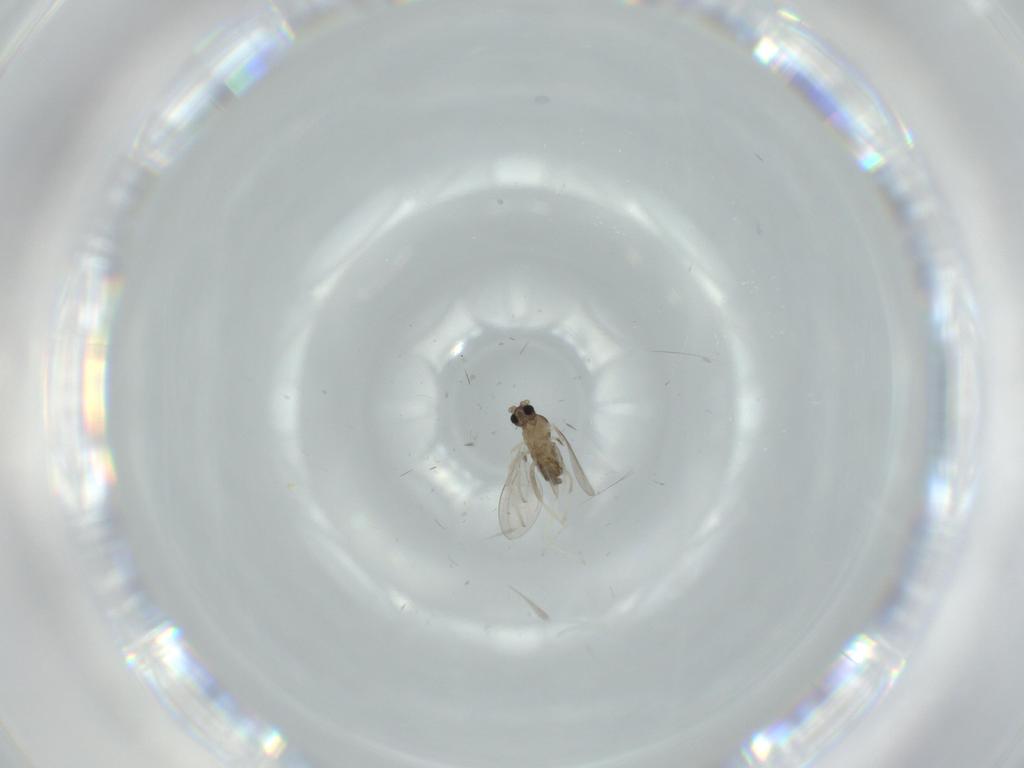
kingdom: Animalia
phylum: Arthropoda
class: Insecta
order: Diptera
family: Cecidomyiidae
